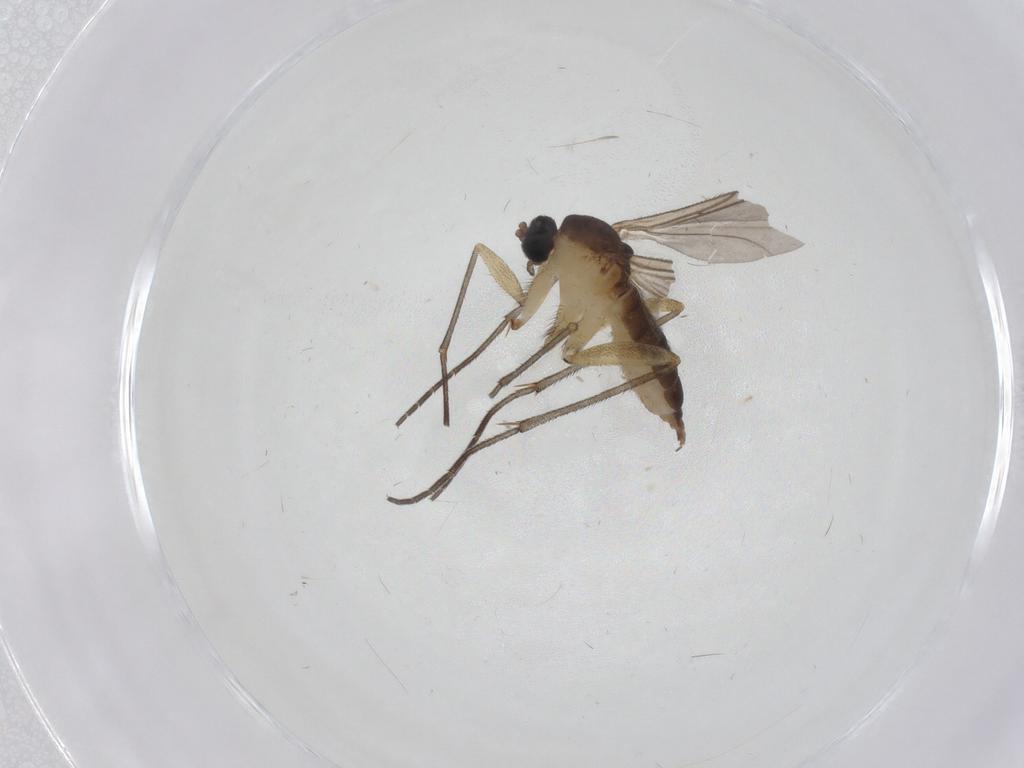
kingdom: Animalia
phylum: Arthropoda
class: Insecta
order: Diptera
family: Sciaridae
